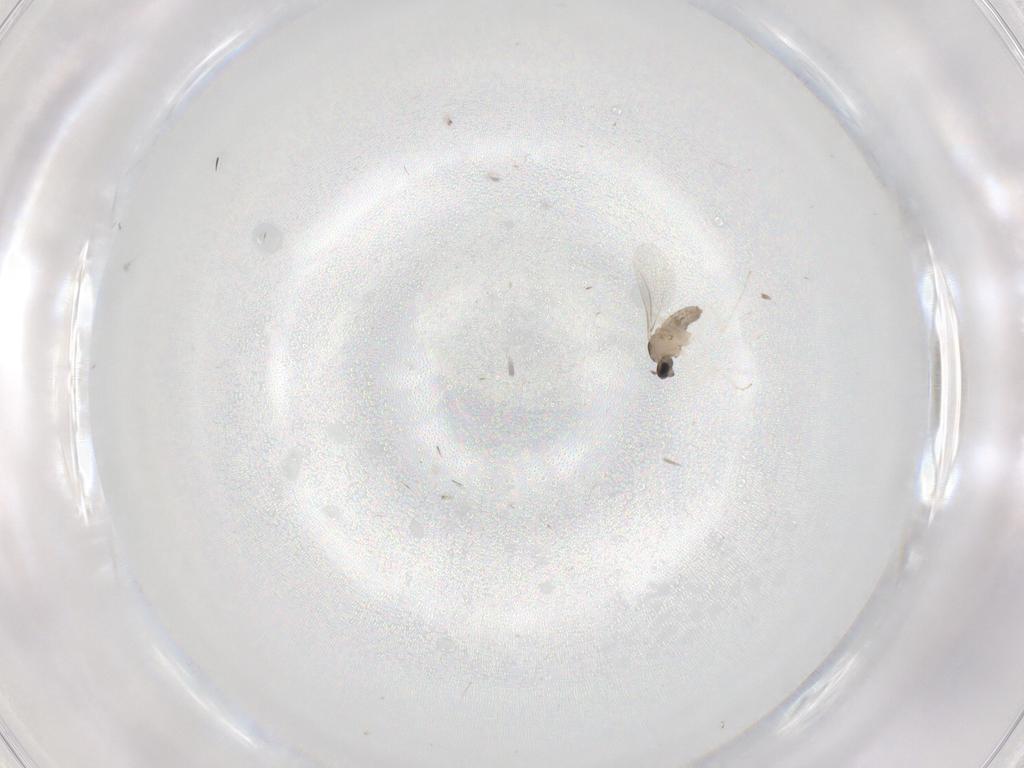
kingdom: Animalia
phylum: Arthropoda
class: Insecta
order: Diptera
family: Cecidomyiidae
